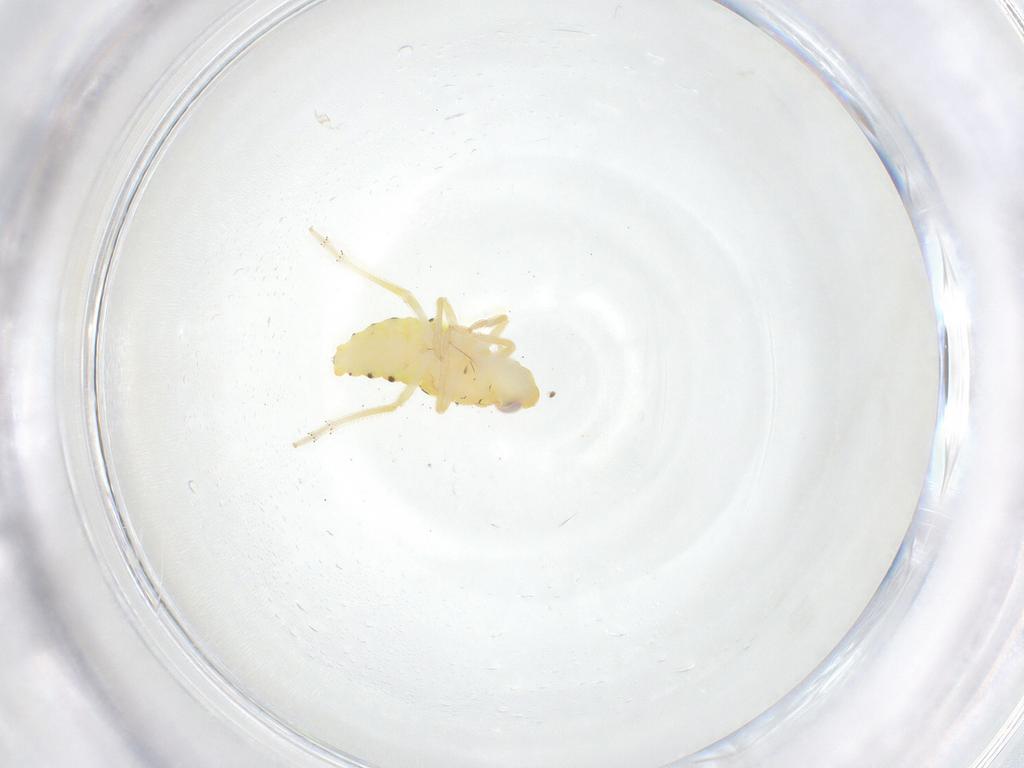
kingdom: Animalia
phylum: Arthropoda
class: Insecta
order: Hemiptera
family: Tropiduchidae
